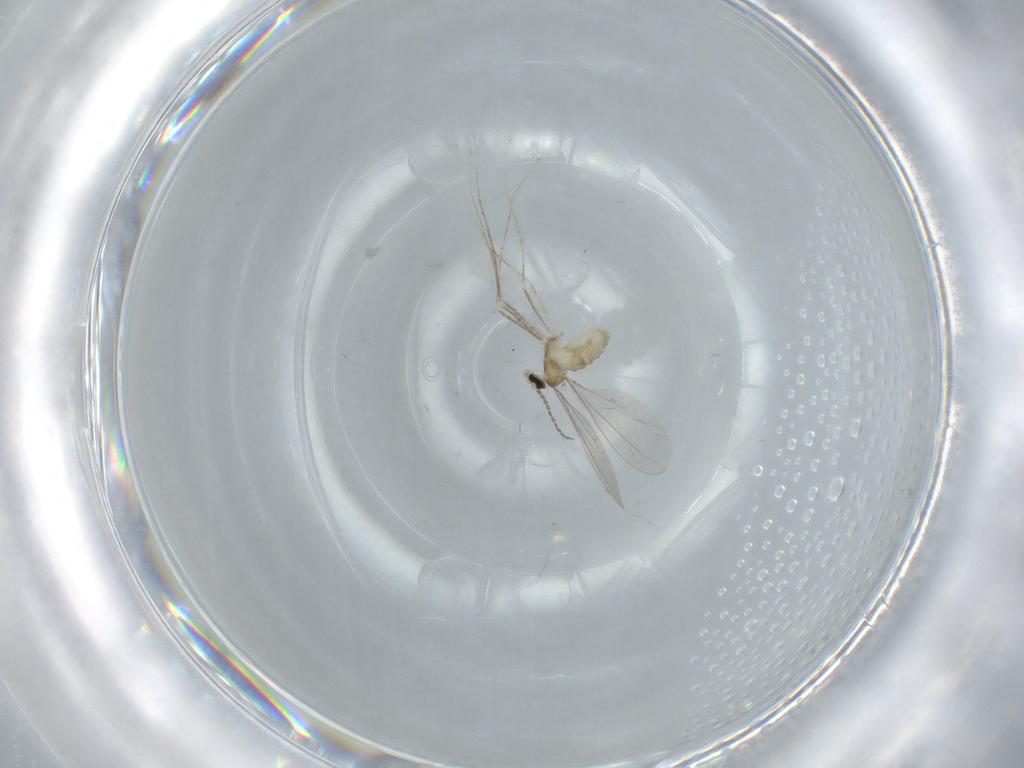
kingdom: Animalia
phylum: Arthropoda
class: Insecta
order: Diptera
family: Cecidomyiidae
